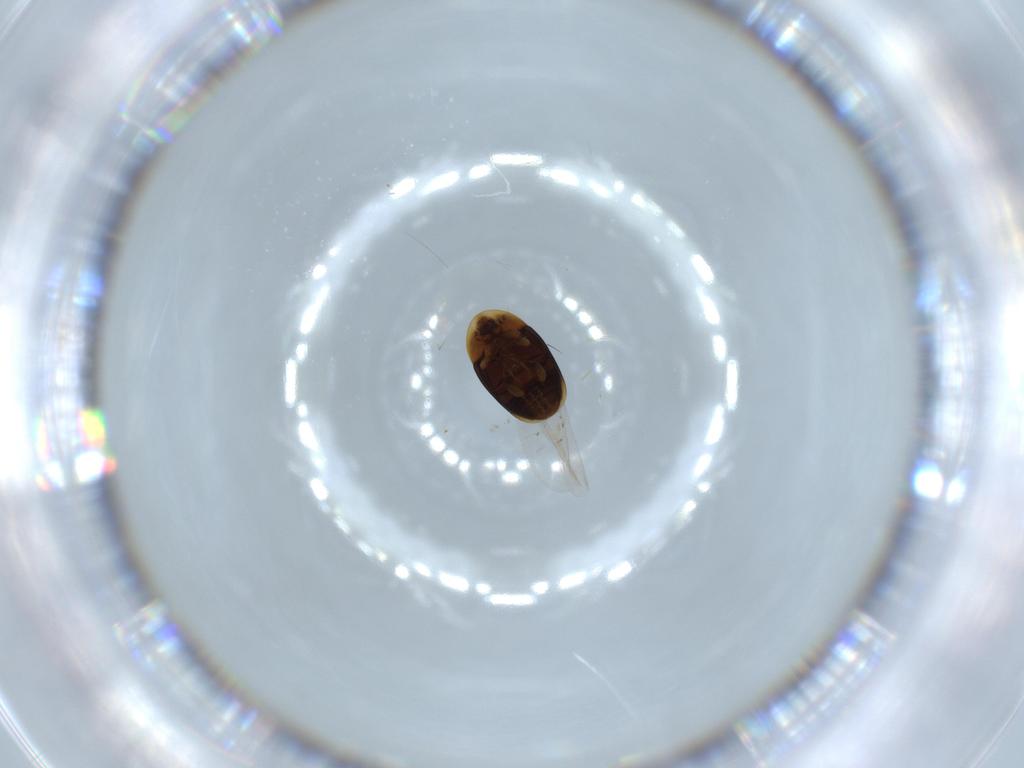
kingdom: Animalia
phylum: Arthropoda
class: Insecta
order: Coleoptera
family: Corylophidae
